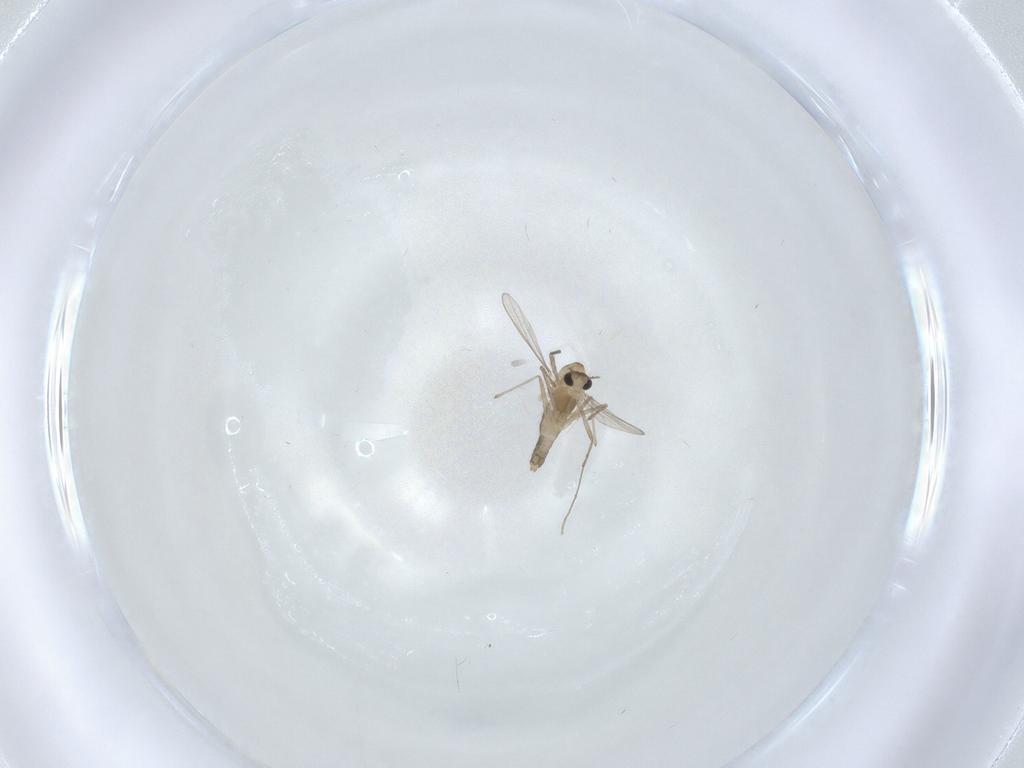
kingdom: Animalia
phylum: Arthropoda
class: Insecta
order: Diptera
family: Chironomidae
